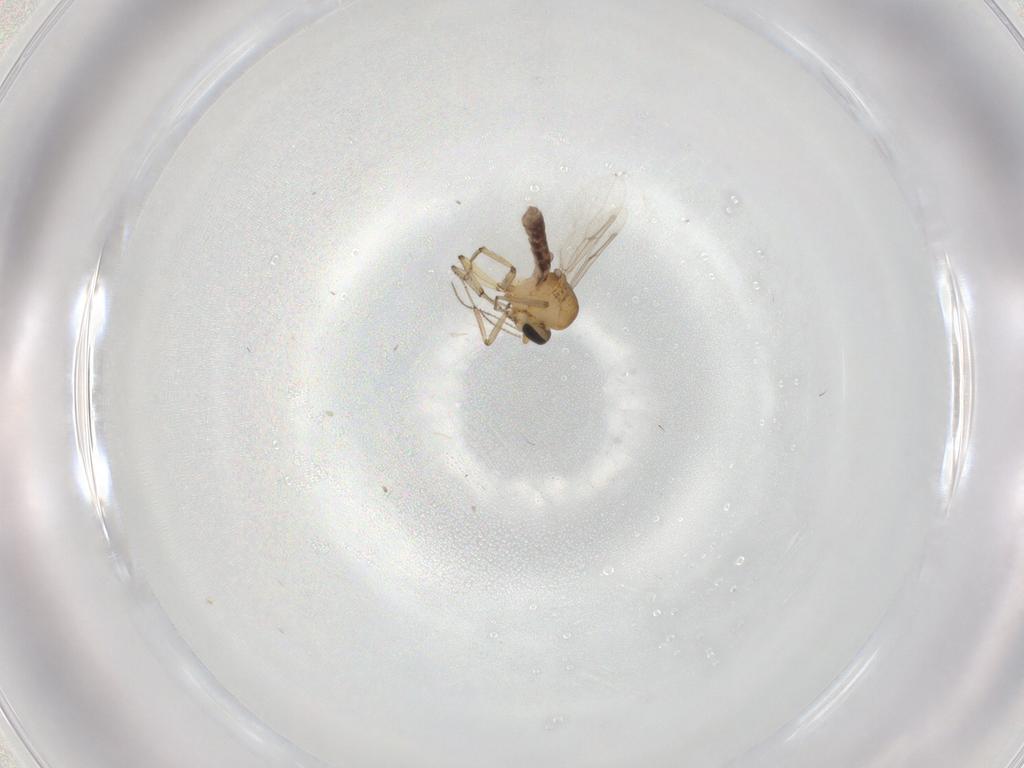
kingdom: Animalia
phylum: Arthropoda
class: Insecta
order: Diptera
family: Ceratopogonidae
